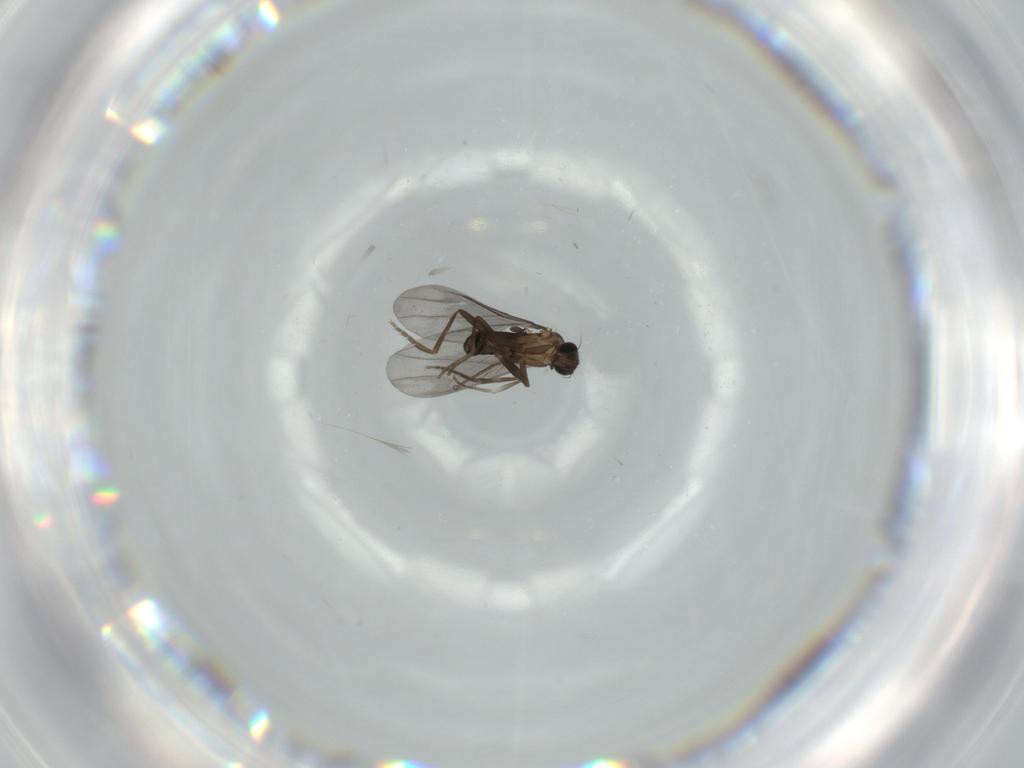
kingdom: Animalia
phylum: Arthropoda
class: Insecta
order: Diptera
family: Phoridae
